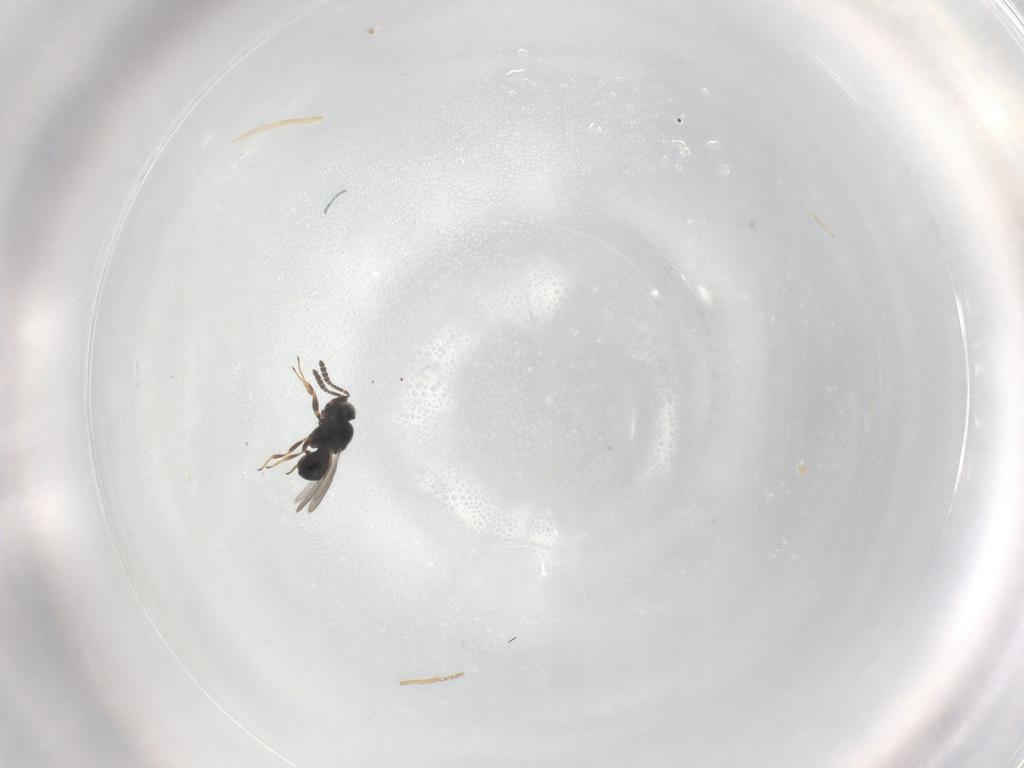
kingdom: Animalia
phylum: Arthropoda
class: Insecta
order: Hymenoptera
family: Scelionidae
